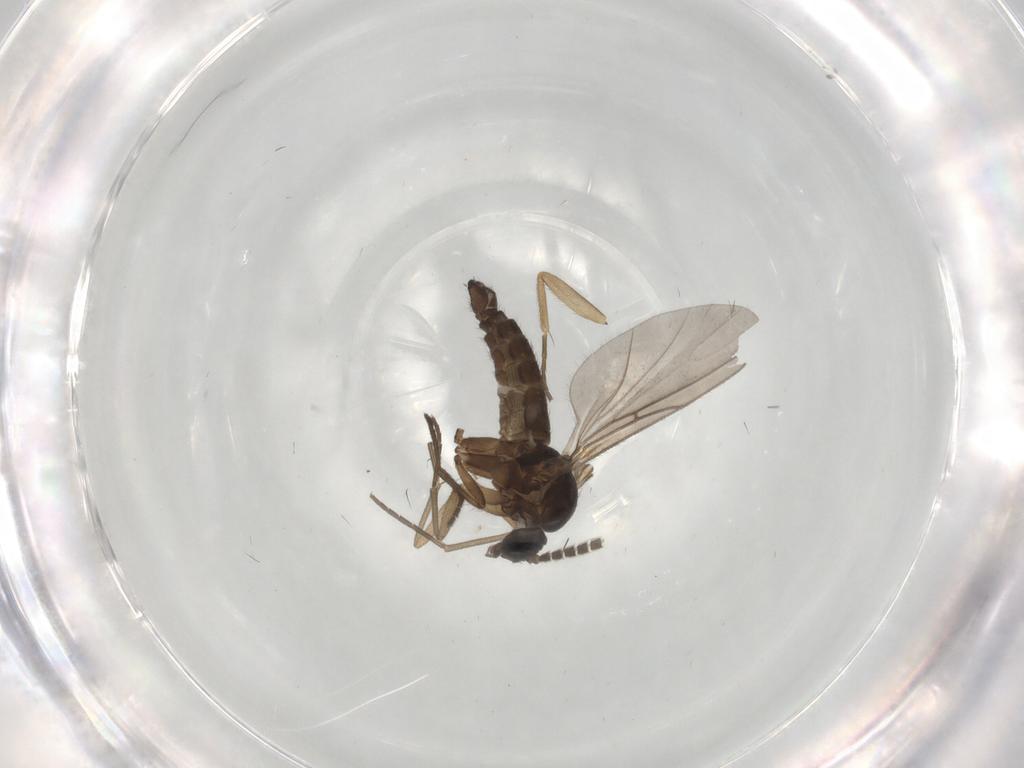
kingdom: Animalia
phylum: Arthropoda
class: Insecta
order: Diptera
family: Sciaridae
